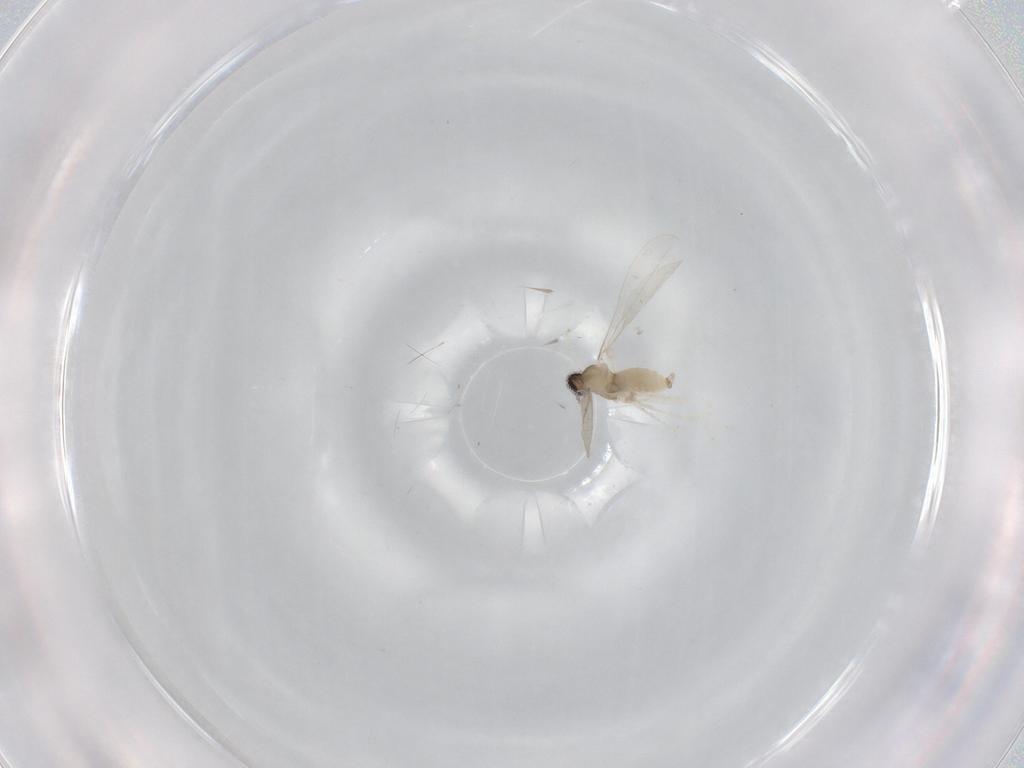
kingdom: Animalia
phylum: Arthropoda
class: Insecta
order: Diptera
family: Cecidomyiidae
